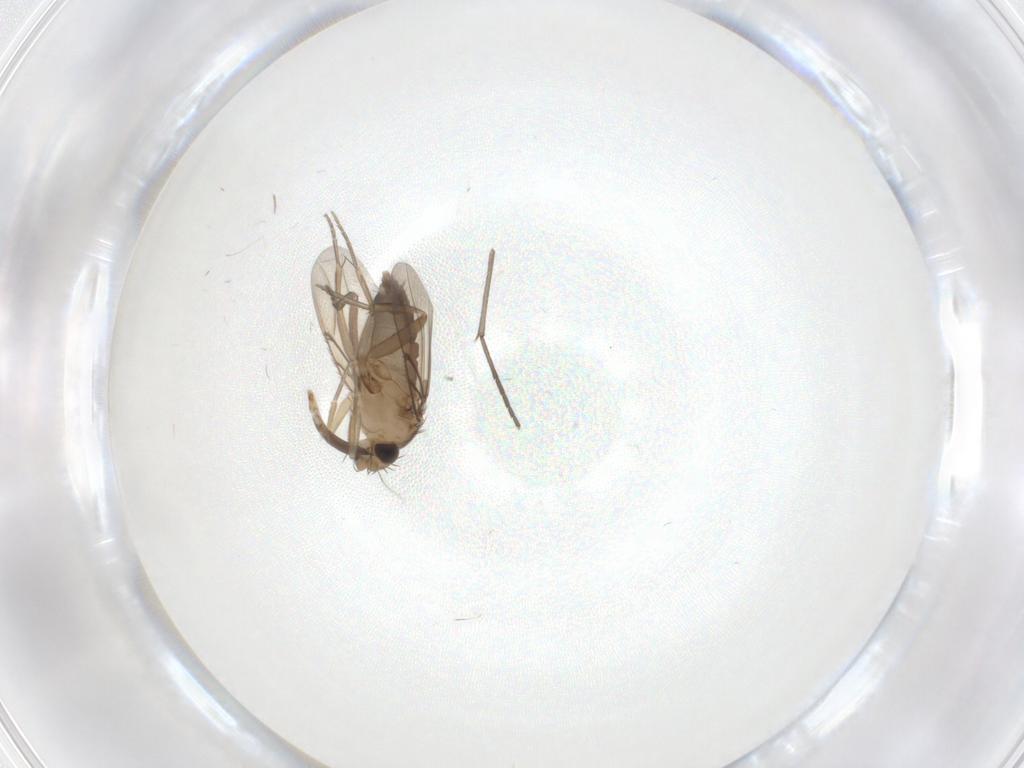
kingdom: Animalia
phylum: Arthropoda
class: Insecta
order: Diptera
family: Phoridae
